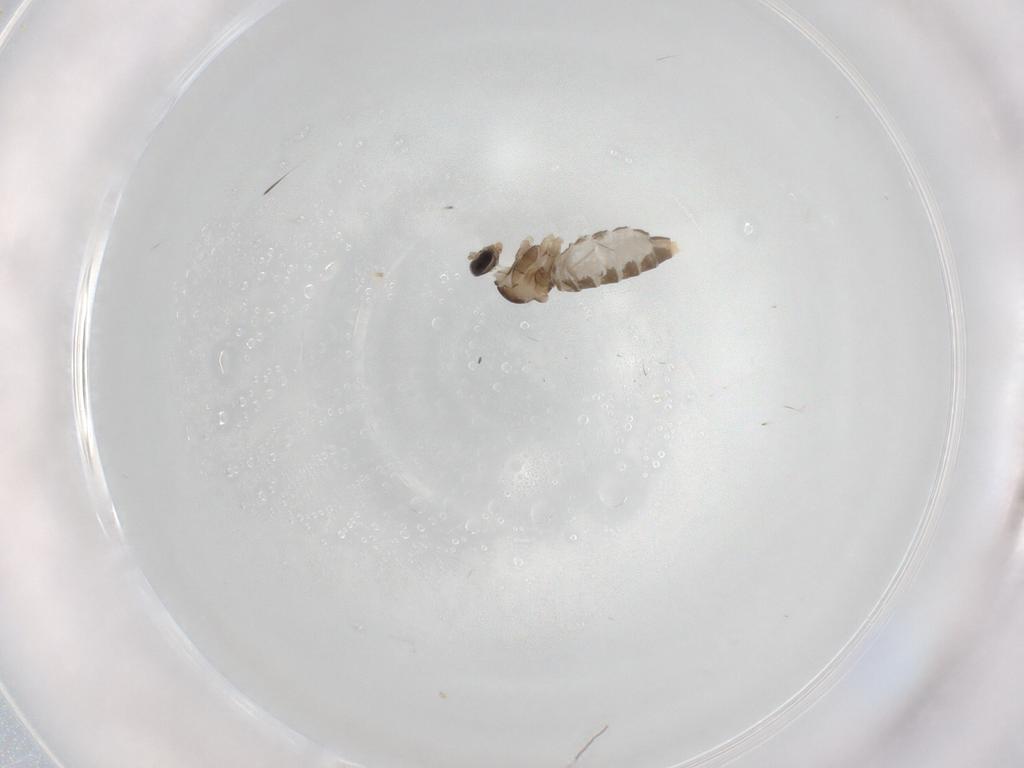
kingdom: Animalia
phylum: Arthropoda
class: Insecta
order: Diptera
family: Cecidomyiidae
